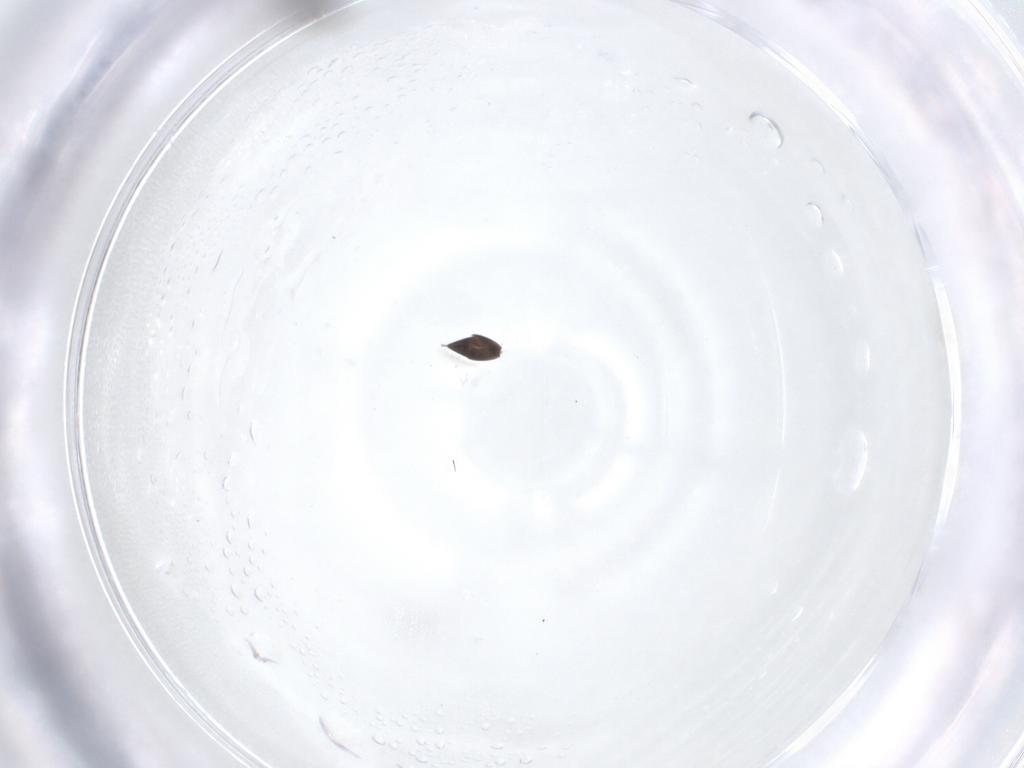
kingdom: Animalia
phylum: Arthropoda
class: Insecta
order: Hymenoptera
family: Scelionidae
